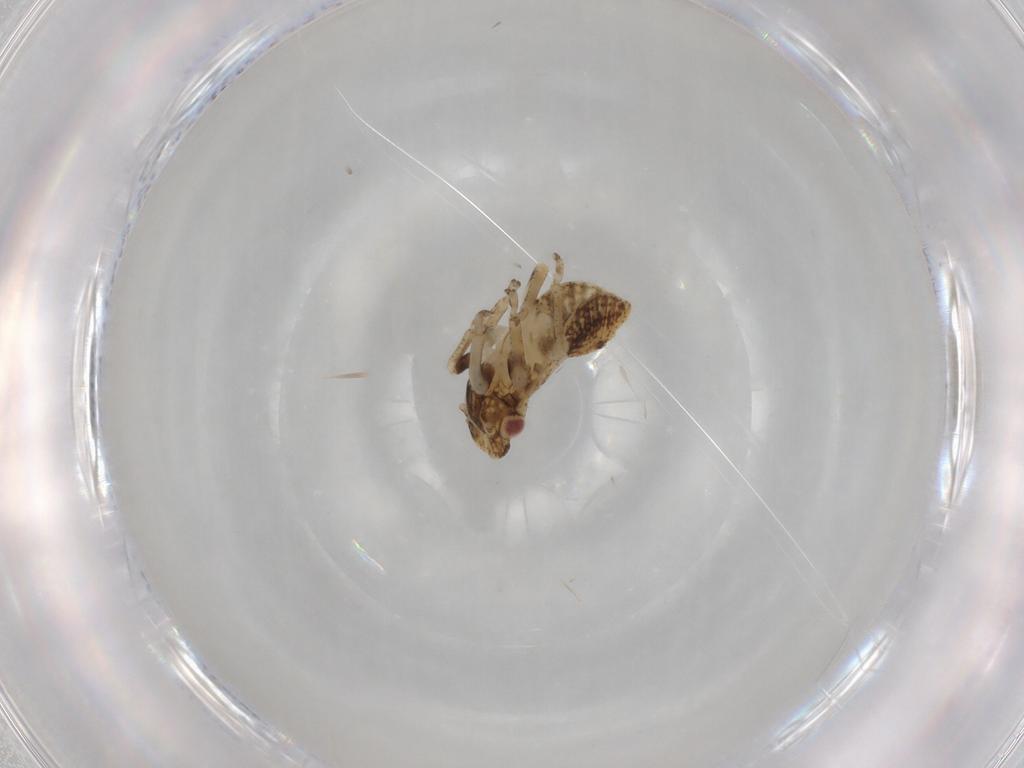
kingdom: Animalia
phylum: Arthropoda
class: Insecta
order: Hemiptera
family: Cicadellidae
